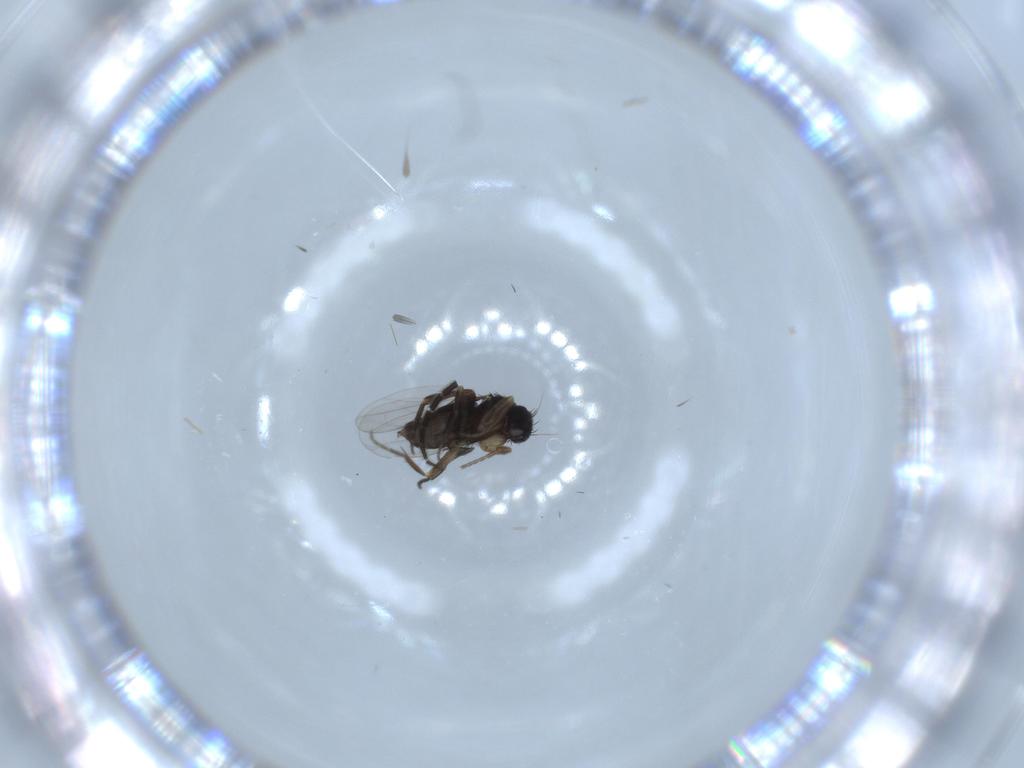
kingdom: Animalia
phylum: Arthropoda
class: Insecta
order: Diptera
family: Phoridae
